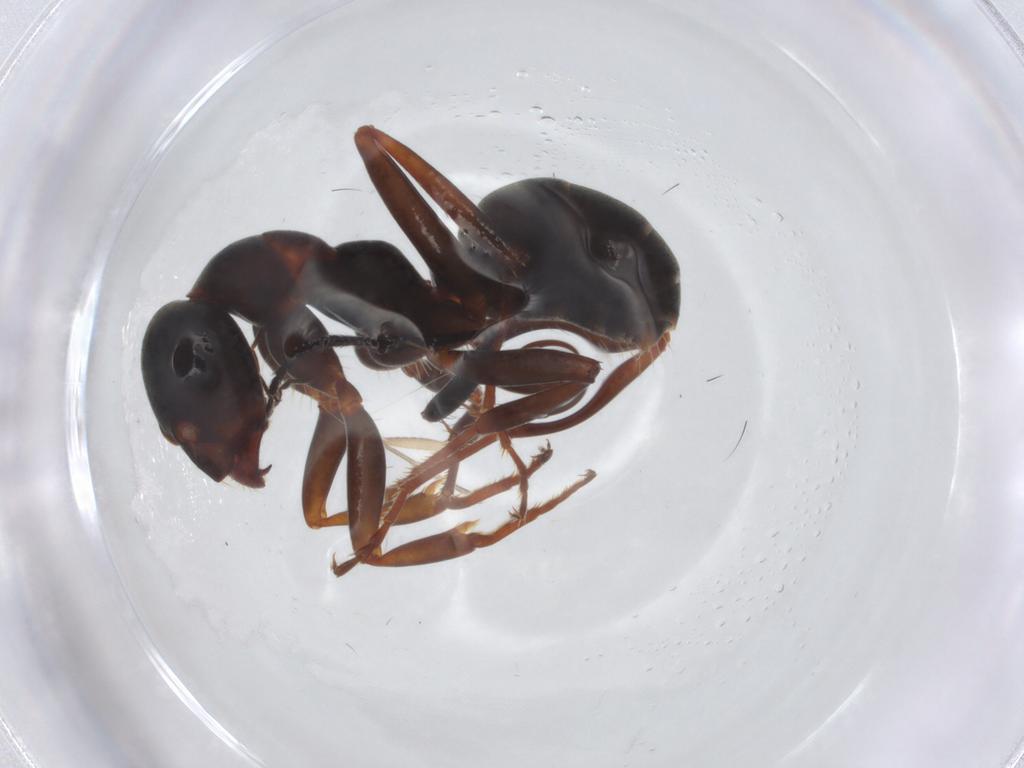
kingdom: Animalia
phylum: Arthropoda
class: Insecta
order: Hymenoptera
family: Formicidae
